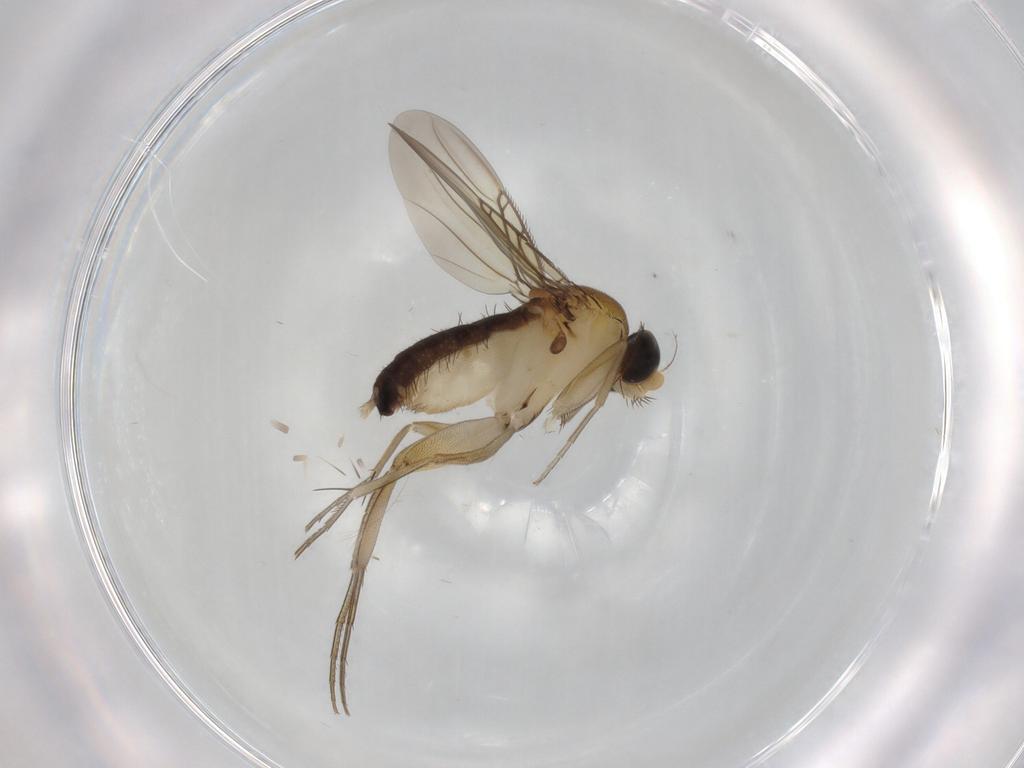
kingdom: Animalia
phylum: Arthropoda
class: Insecta
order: Diptera
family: Phoridae
